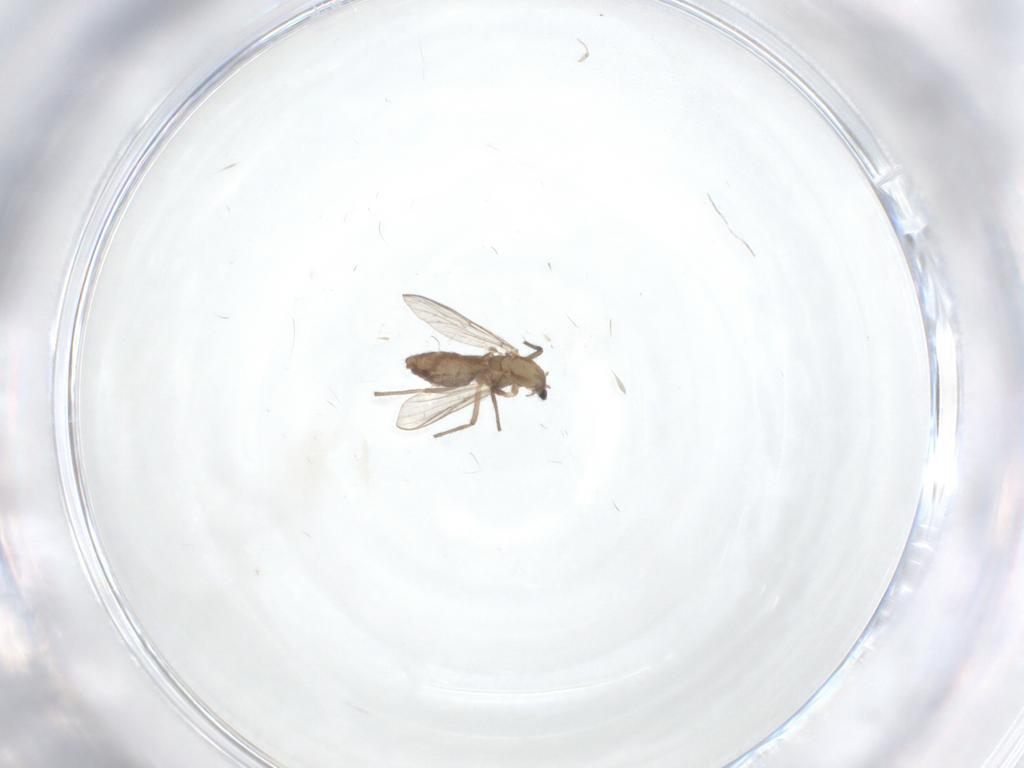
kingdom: Animalia
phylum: Arthropoda
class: Insecta
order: Diptera
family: Chironomidae
